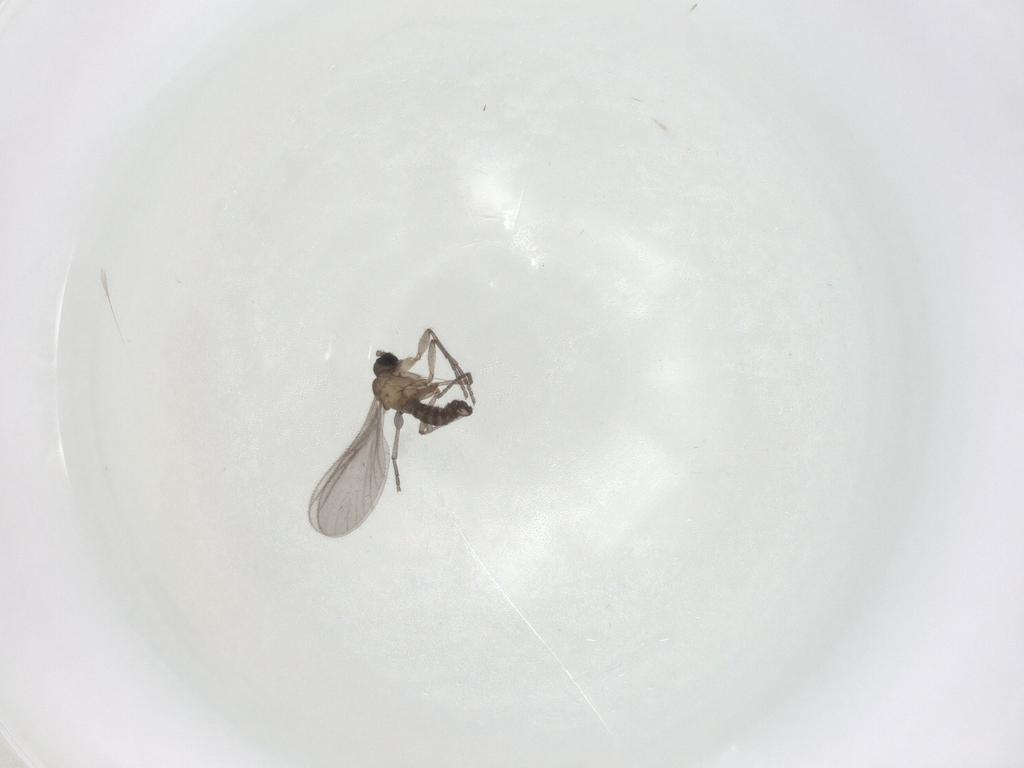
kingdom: Animalia
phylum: Arthropoda
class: Insecta
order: Diptera
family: Sciaridae
